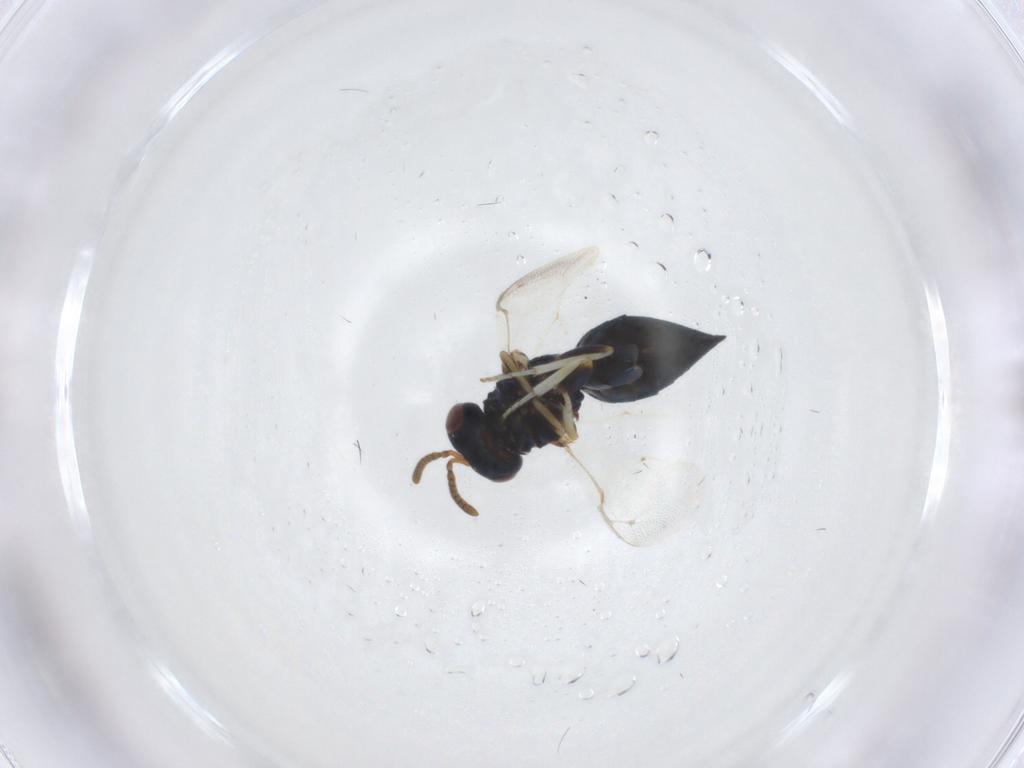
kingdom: Animalia
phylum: Arthropoda
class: Insecta
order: Hymenoptera
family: Pteromalidae
